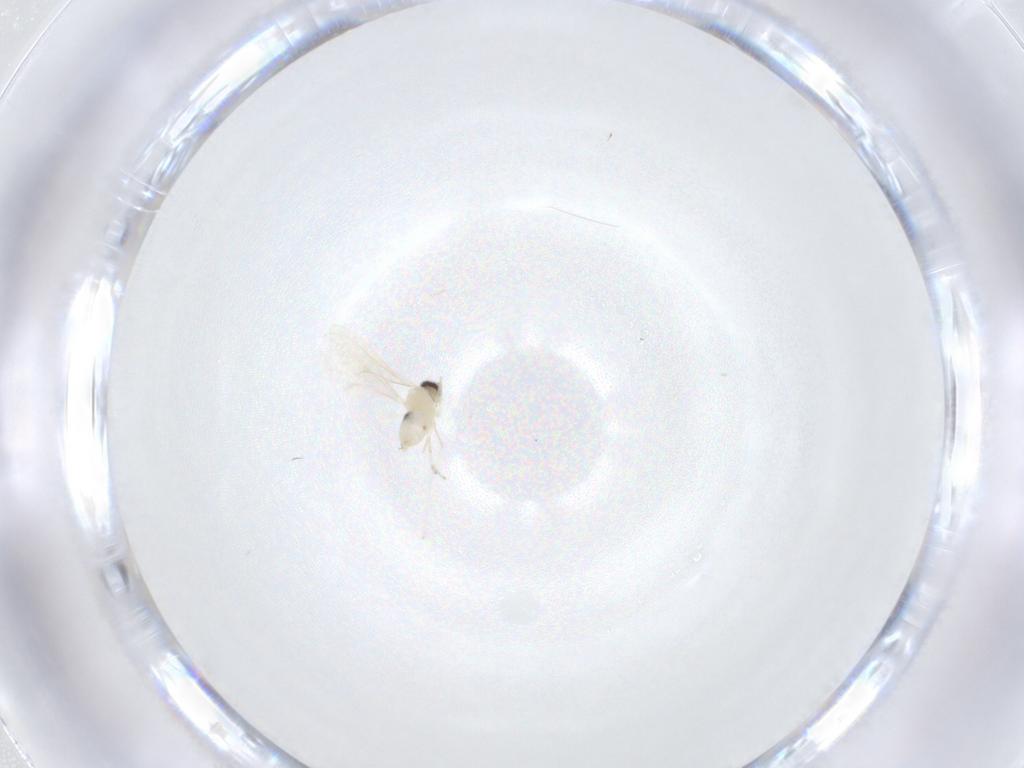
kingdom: Animalia
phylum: Arthropoda
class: Insecta
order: Diptera
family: Cecidomyiidae
